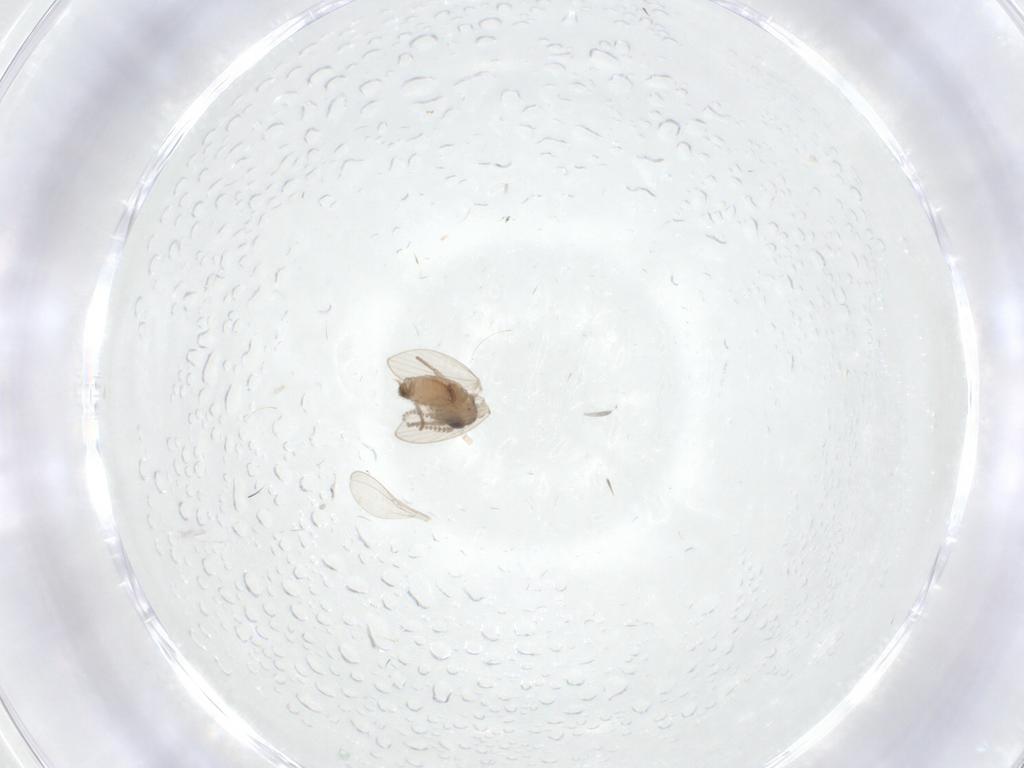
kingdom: Animalia
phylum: Arthropoda
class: Insecta
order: Diptera
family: Psychodidae
